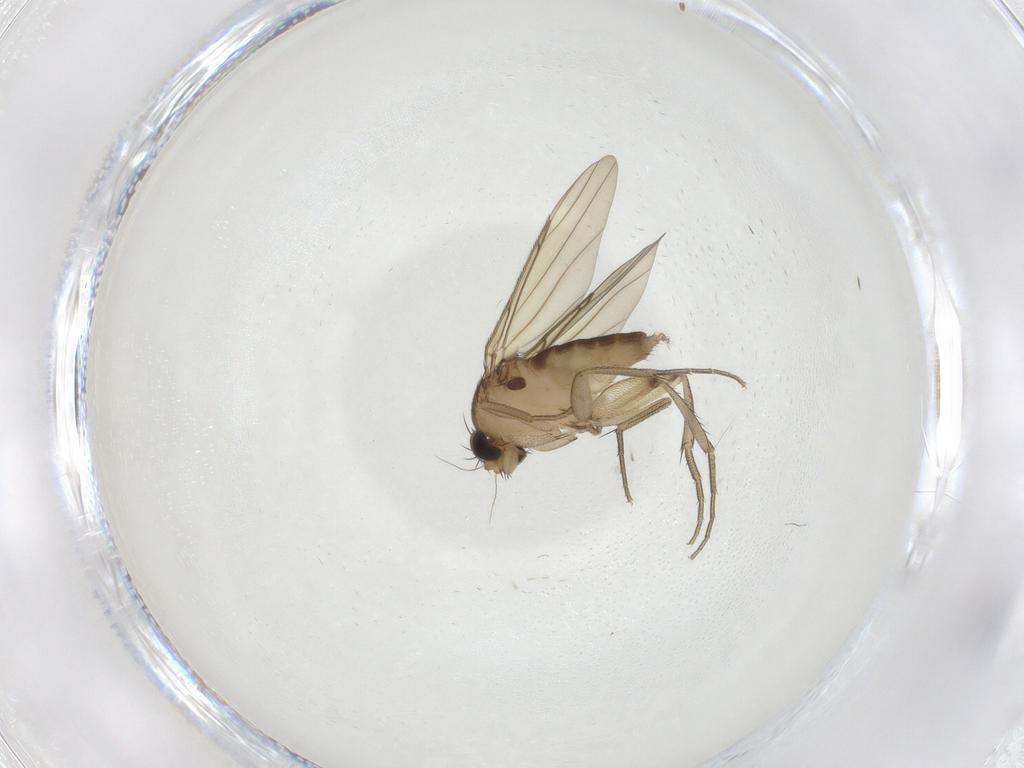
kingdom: Animalia
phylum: Arthropoda
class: Insecta
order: Diptera
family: Phoridae
